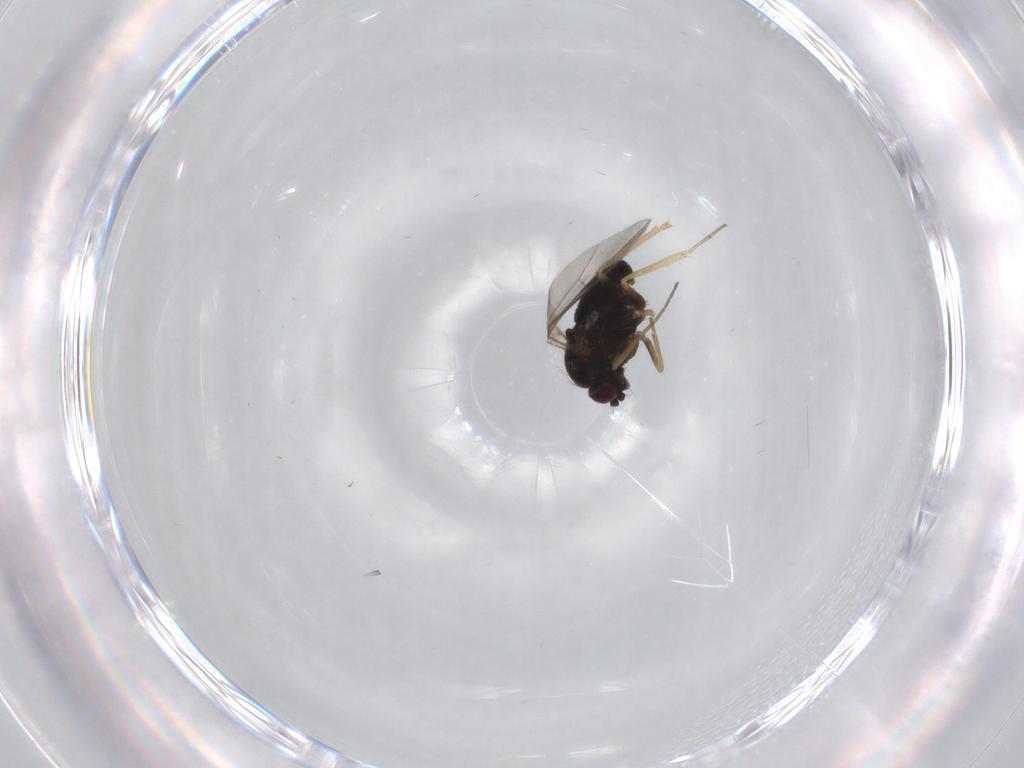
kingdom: Animalia
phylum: Arthropoda
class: Insecta
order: Diptera
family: Dolichopodidae
